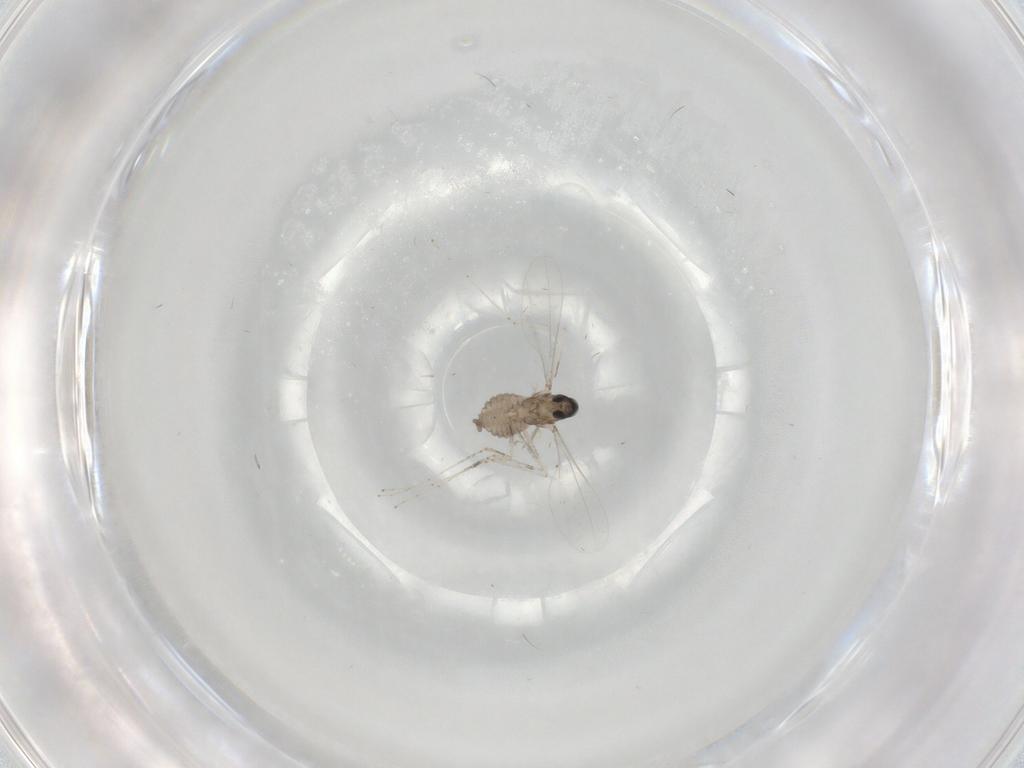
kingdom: Animalia
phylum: Arthropoda
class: Insecta
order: Diptera
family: Cecidomyiidae
